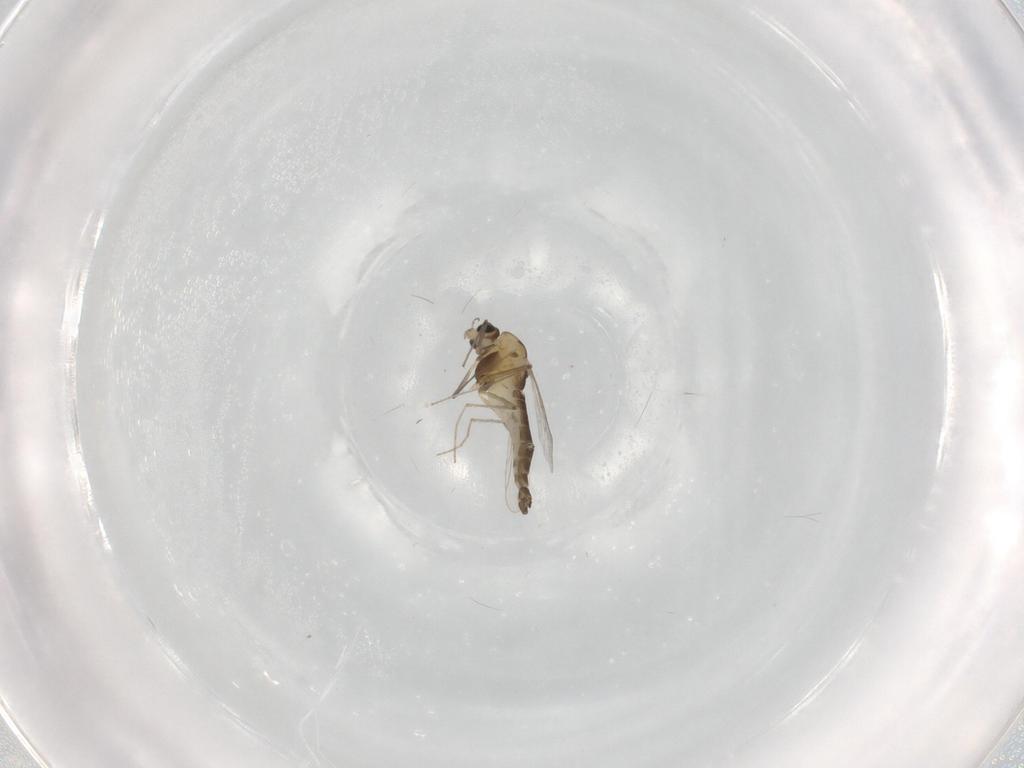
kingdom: Animalia
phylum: Arthropoda
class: Insecta
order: Diptera
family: Chironomidae
